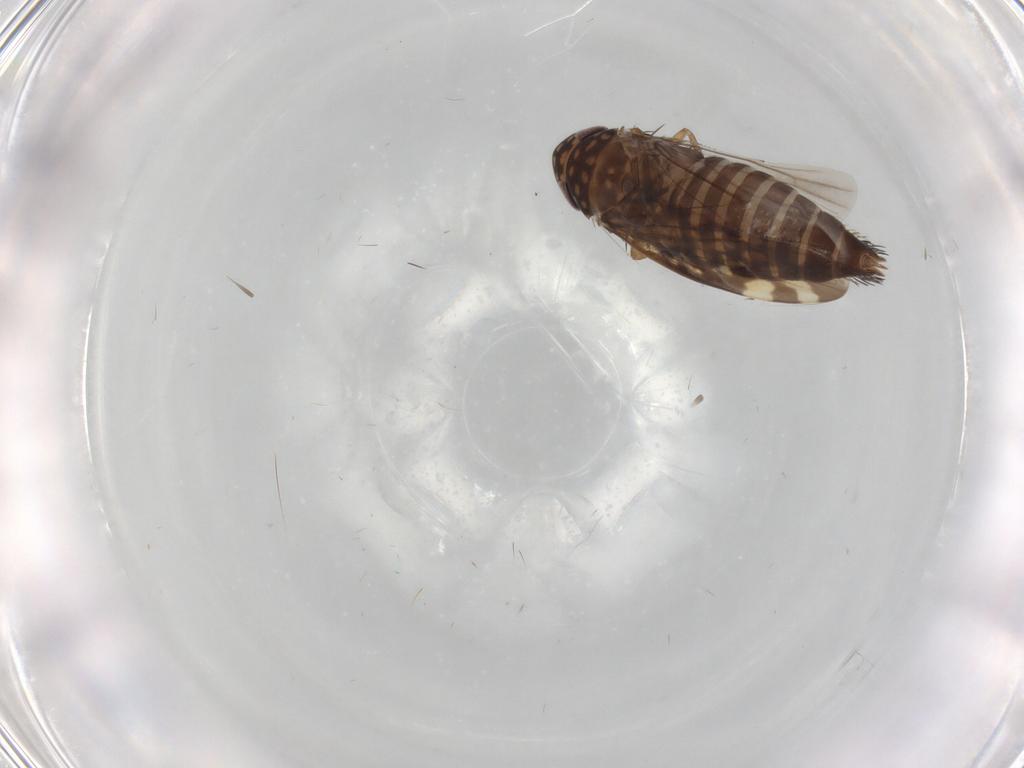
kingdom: Animalia
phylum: Arthropoda
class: Insecta
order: Hemiptera
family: Cicadellidae
